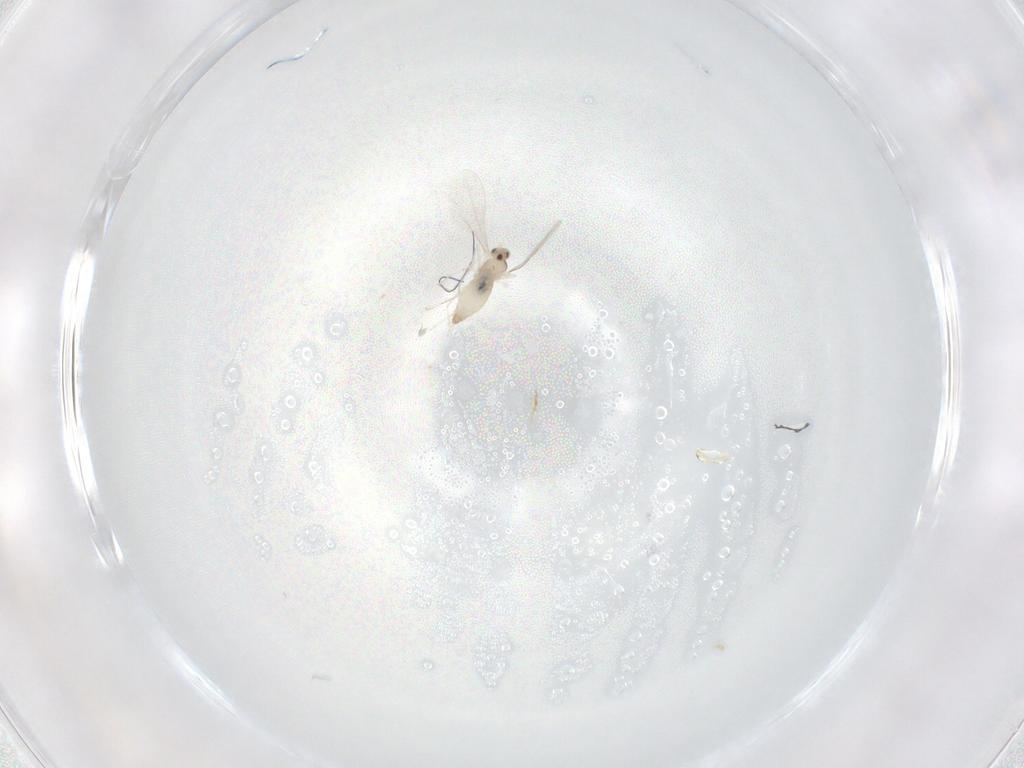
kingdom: Animalia
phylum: Arthropoda
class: Insecta
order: Diptera
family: Cecidomyiidae
